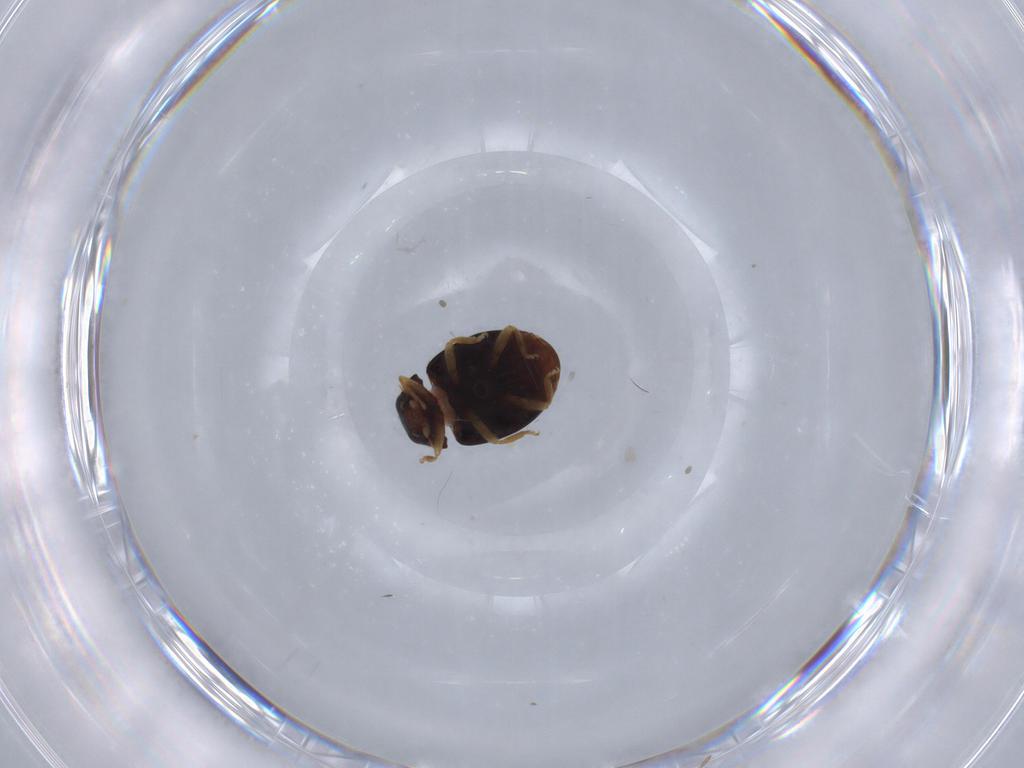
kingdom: Animalia
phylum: Arthropoda
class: Insecta
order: Coleoptera
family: Coccinellidae
